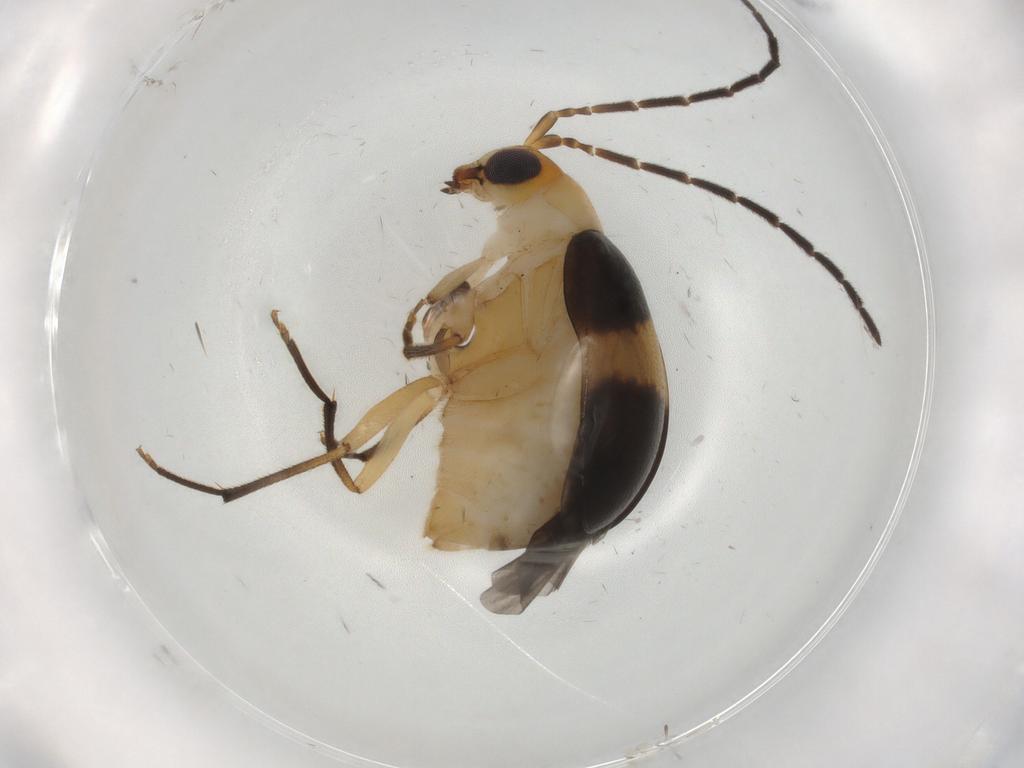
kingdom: Animalia
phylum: Arthropoda
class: Insecta
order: Coleoptera
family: Chrysomelidae
